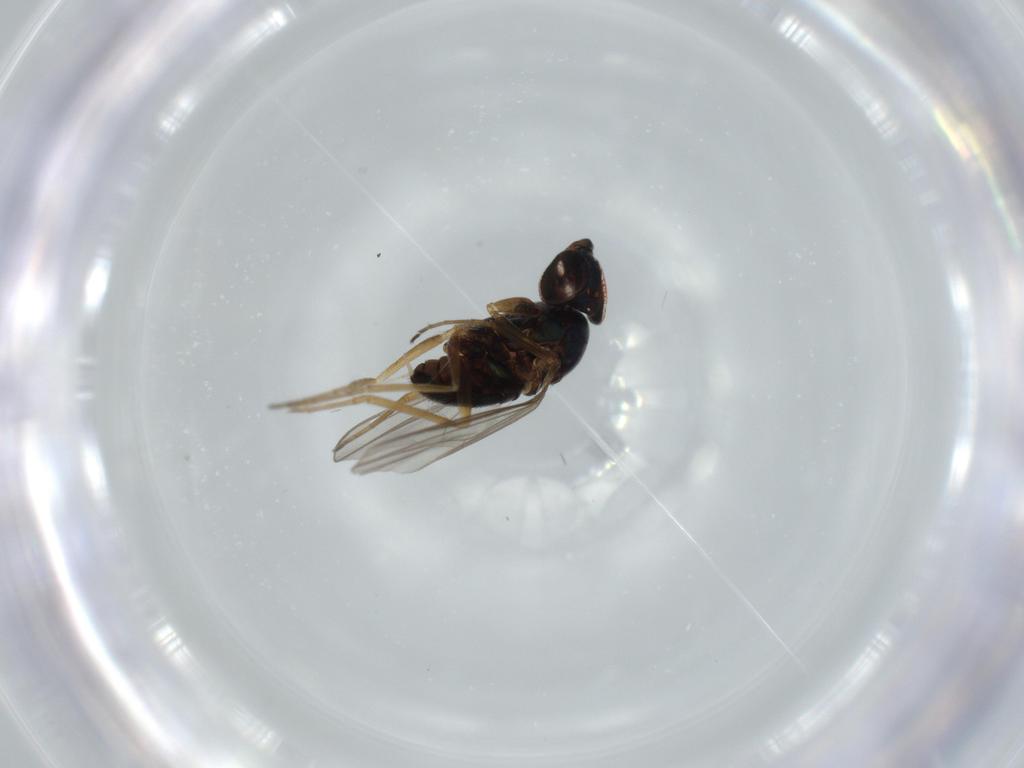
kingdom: Animalia
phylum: Arthropoda
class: Insecta
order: Diptera
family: Dolichopodidae
